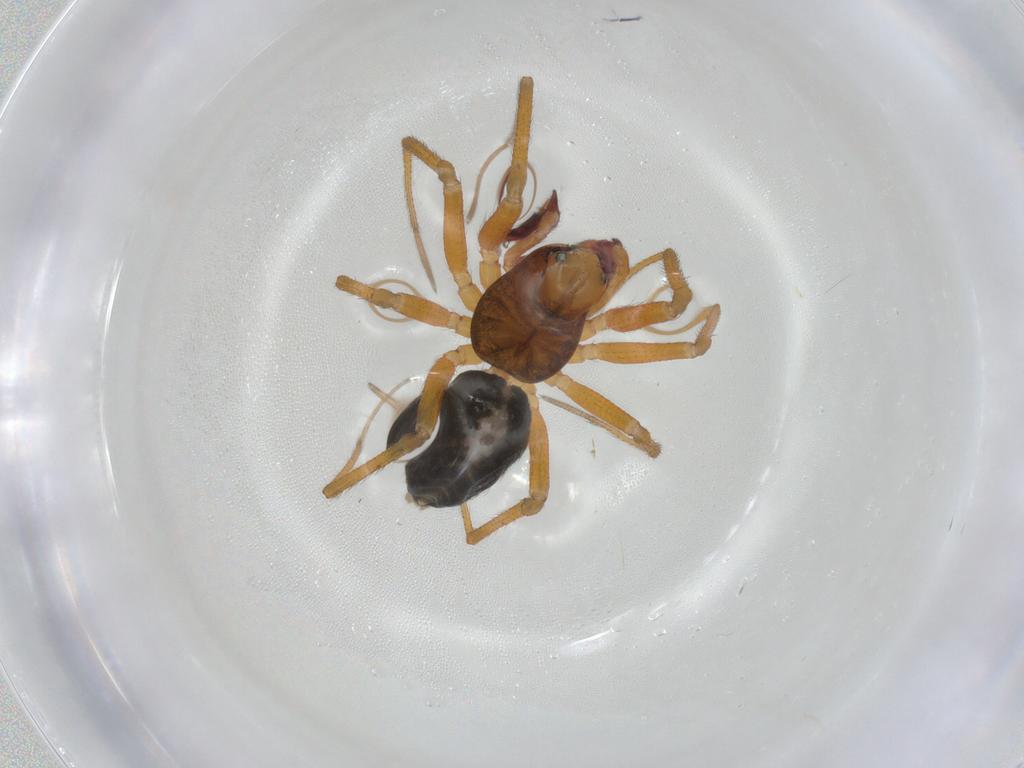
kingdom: Animalia
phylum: Arthropoda
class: Arachnida
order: Araneae
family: Linyphiidae
